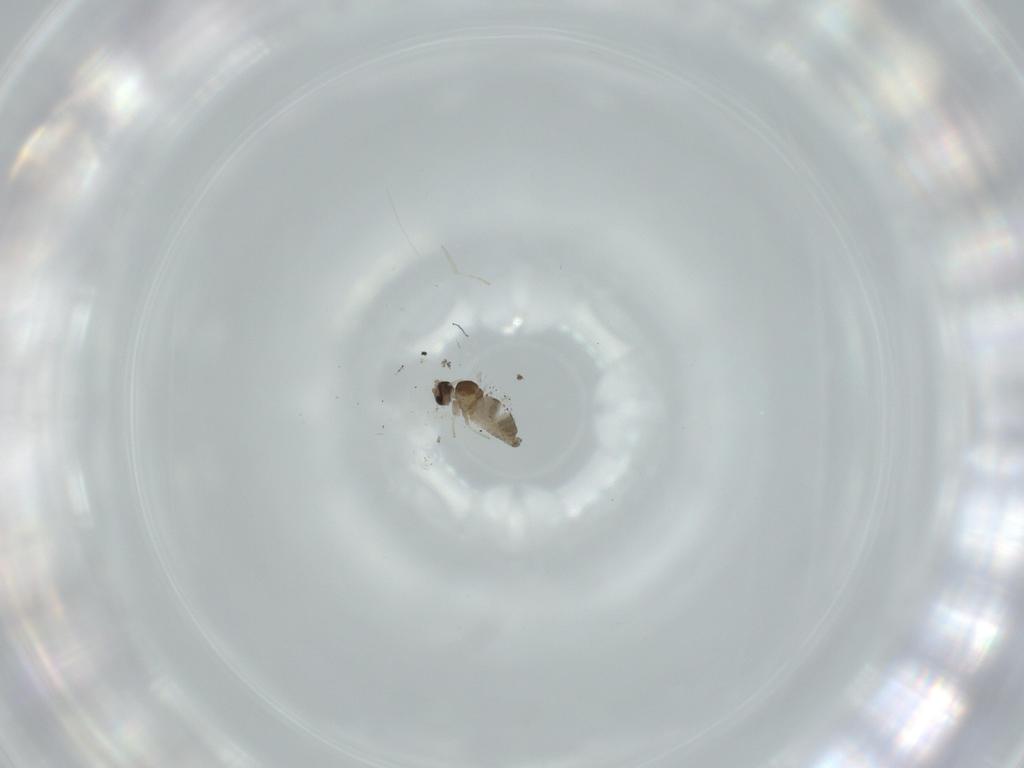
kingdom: Animalia
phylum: Arthropoda
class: Insecta
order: Diptera
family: Cecidomyiidae
